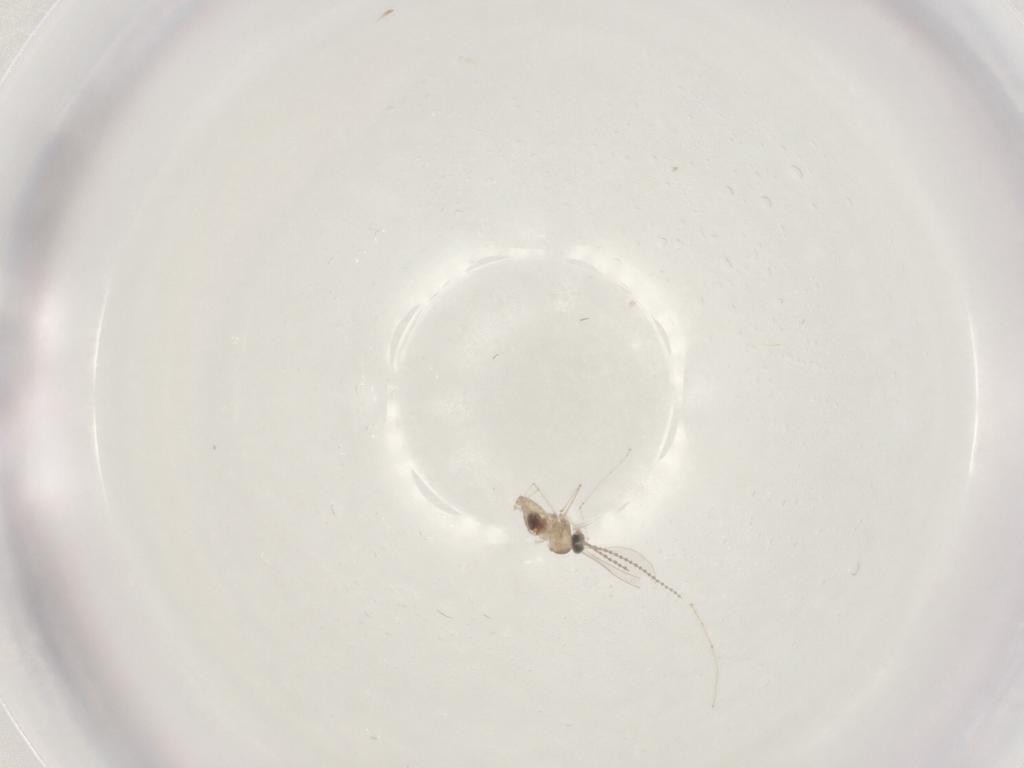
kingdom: Animalia
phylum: Arthropoda
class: Insecta
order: Diptera
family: Cecidomyiidae
